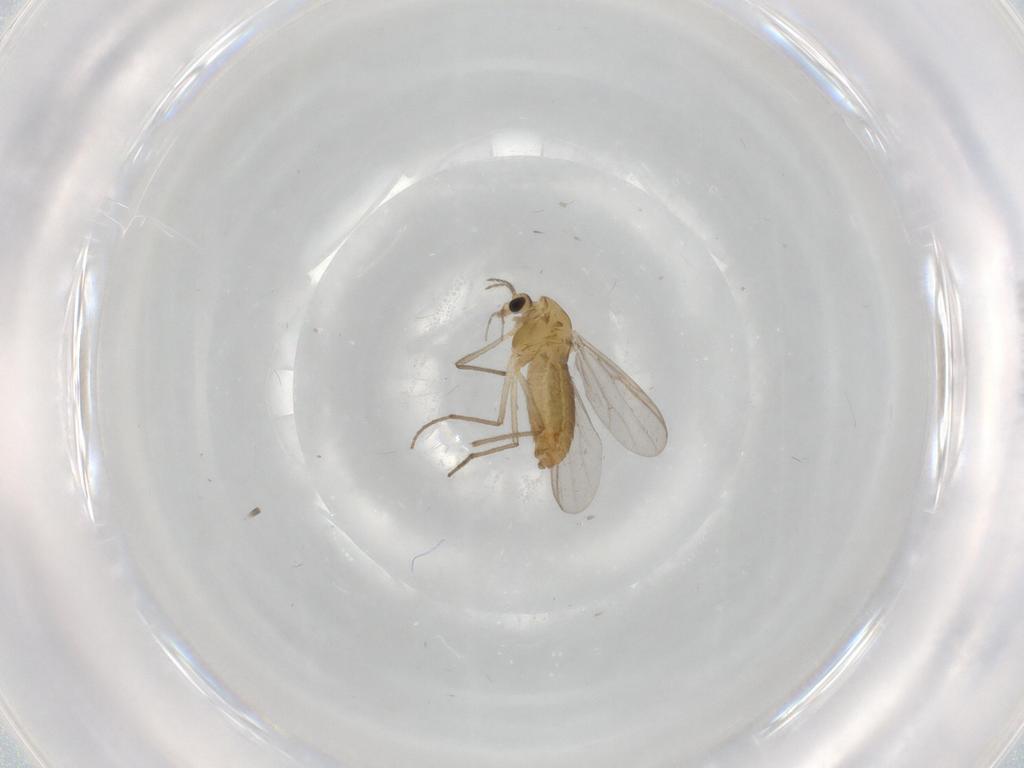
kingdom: Animalia
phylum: Arthropoda
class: Insecta
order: Diptera
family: Chironomidae
